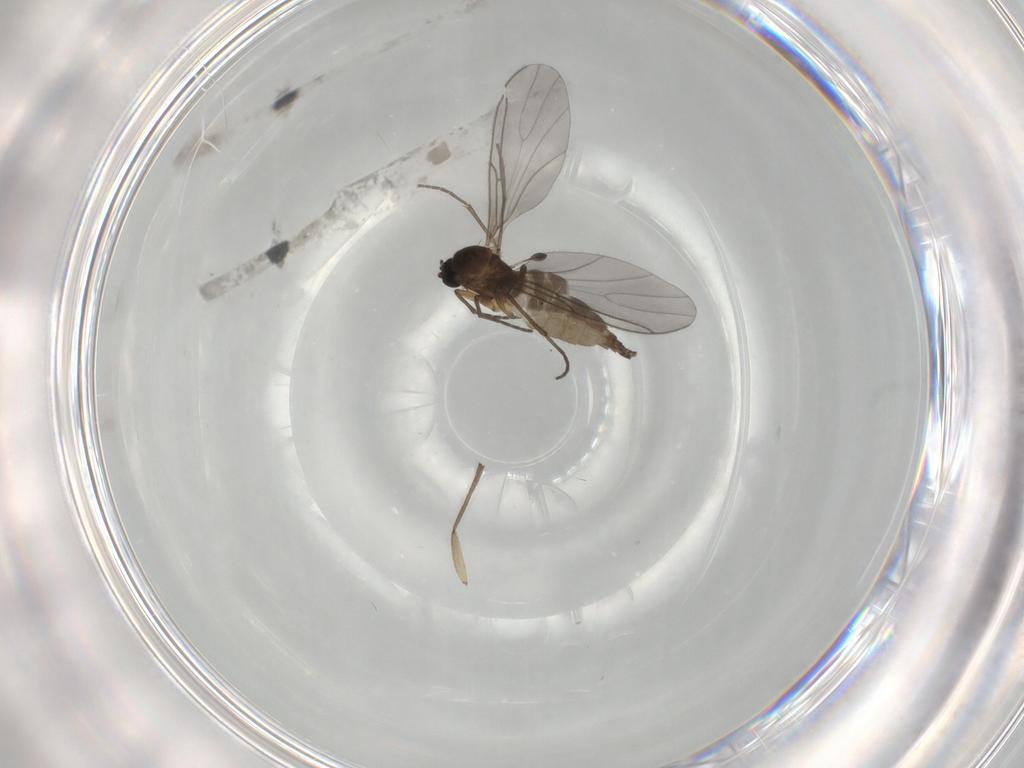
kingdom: Animalia
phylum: Arthropoda
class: Insecta
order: Diptera
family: Sciaridae
